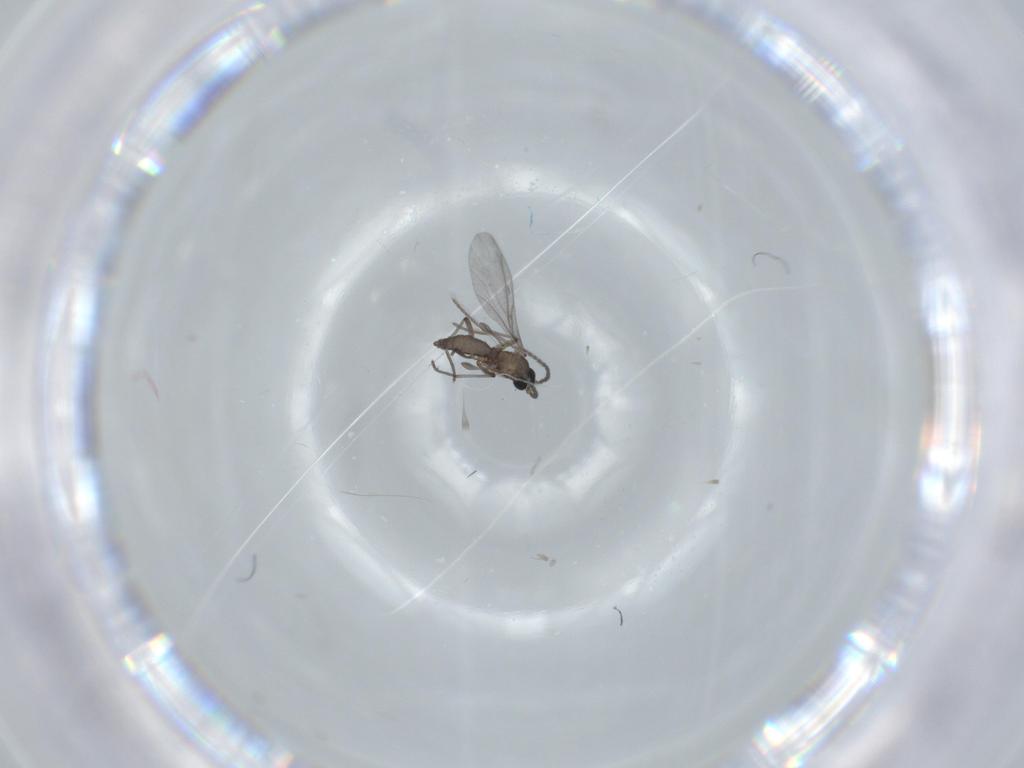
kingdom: Animalia
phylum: Arthropoda
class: Insecta
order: Diptera
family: Sciaridae
